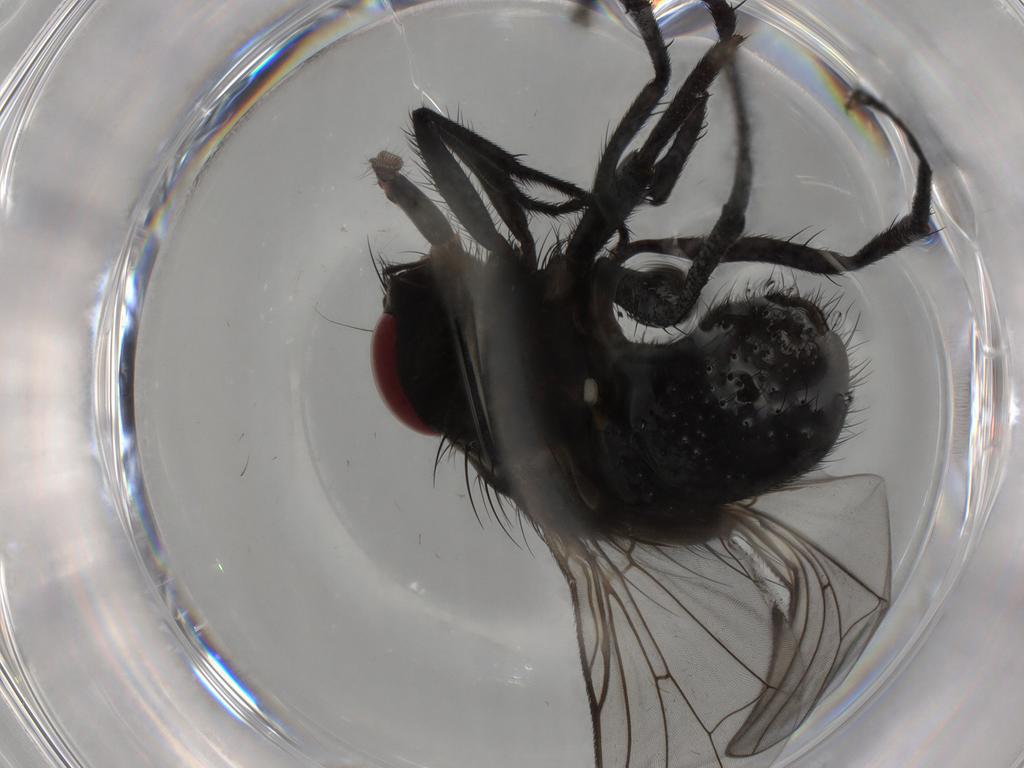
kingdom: Animalia
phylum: Arthropoda
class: Insecta
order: Diptera
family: Muscidae
